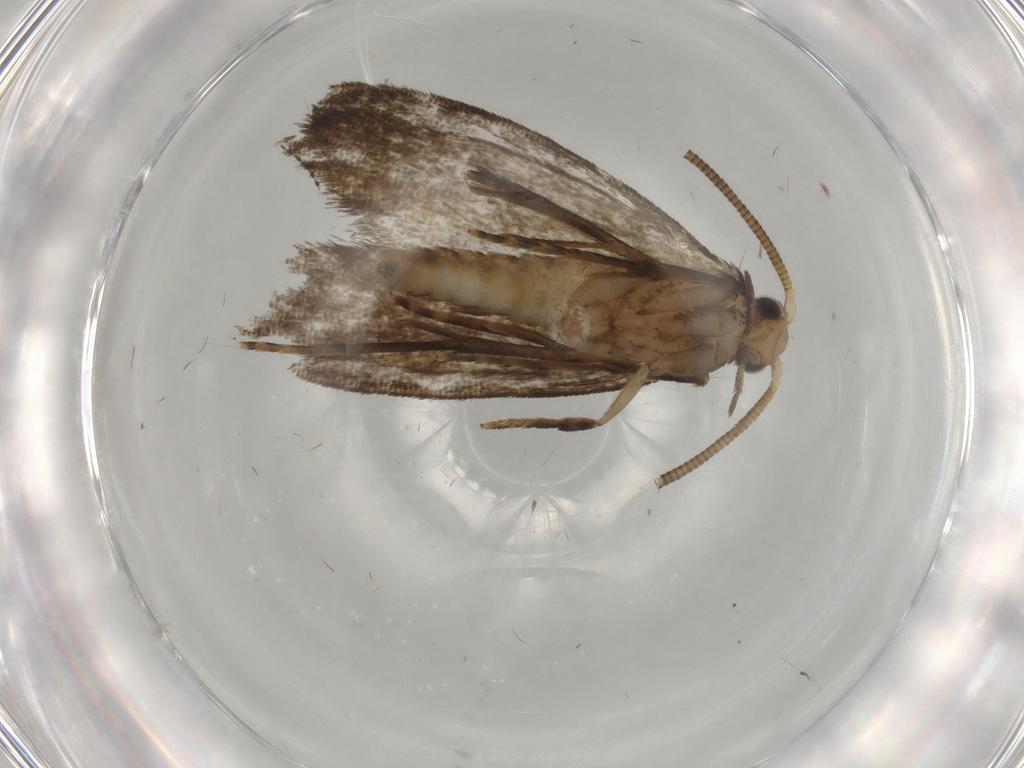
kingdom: Animalia
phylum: Arthropoda
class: Insecta
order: Lepidoptera
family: Tineidae
